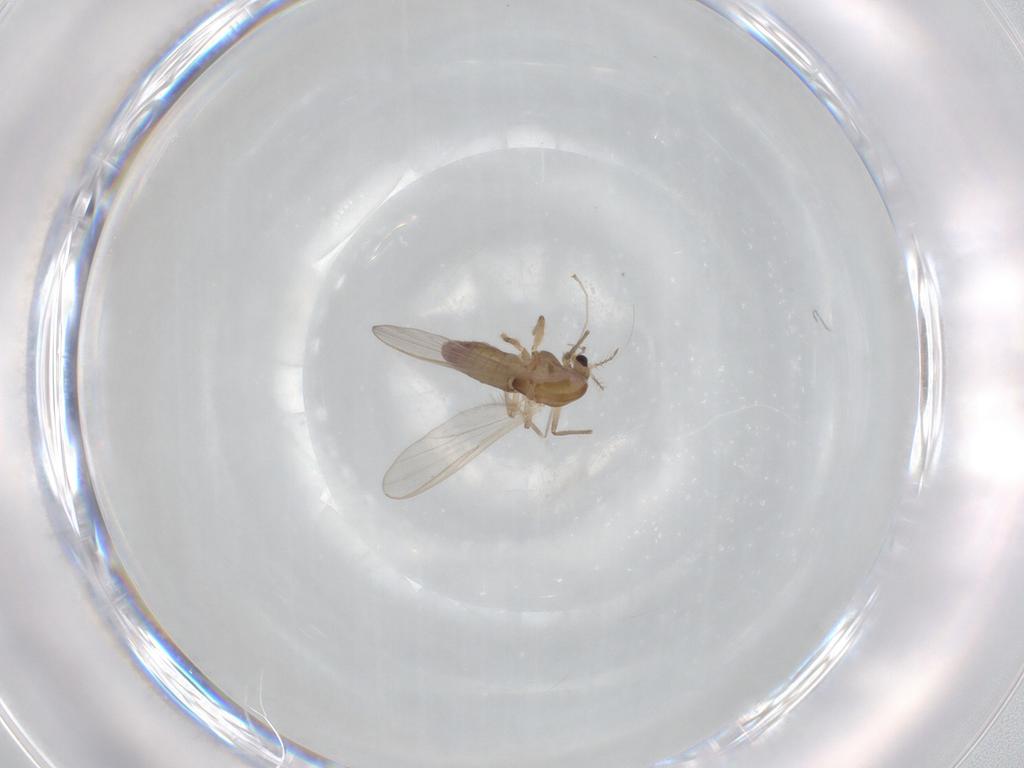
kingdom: Animalia
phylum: Arthropoda
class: Insecta
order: Diptera
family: Chironomidae
